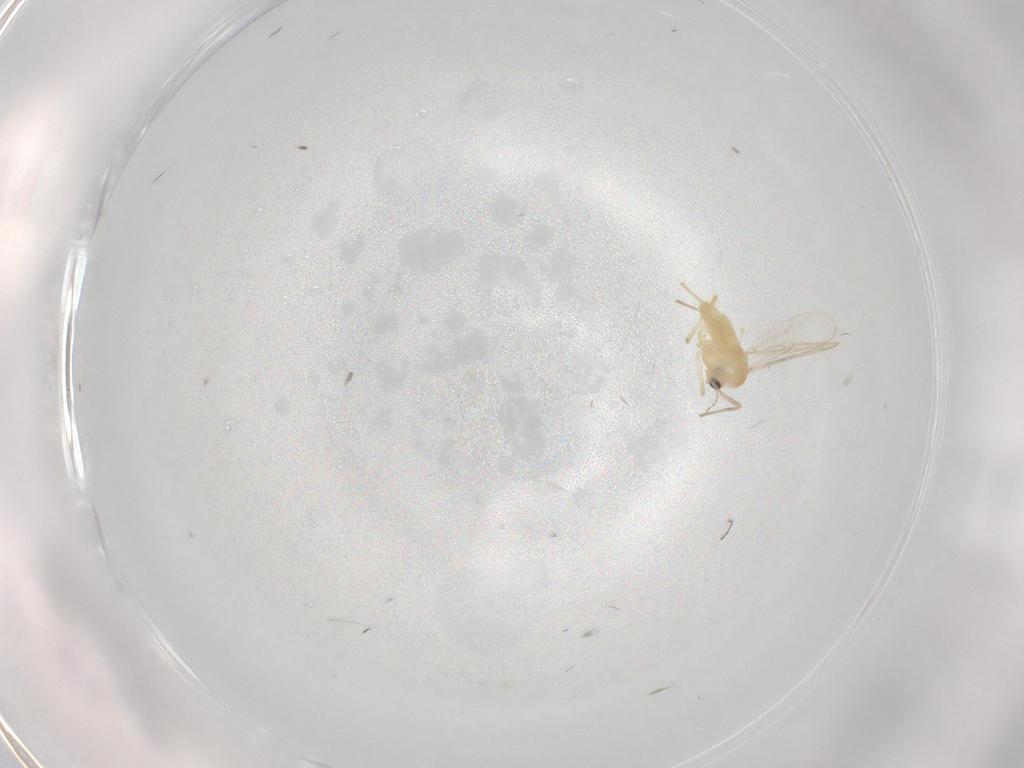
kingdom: Animalia
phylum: Arthropoda
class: Insecta
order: Diptera
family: Chironomidae
